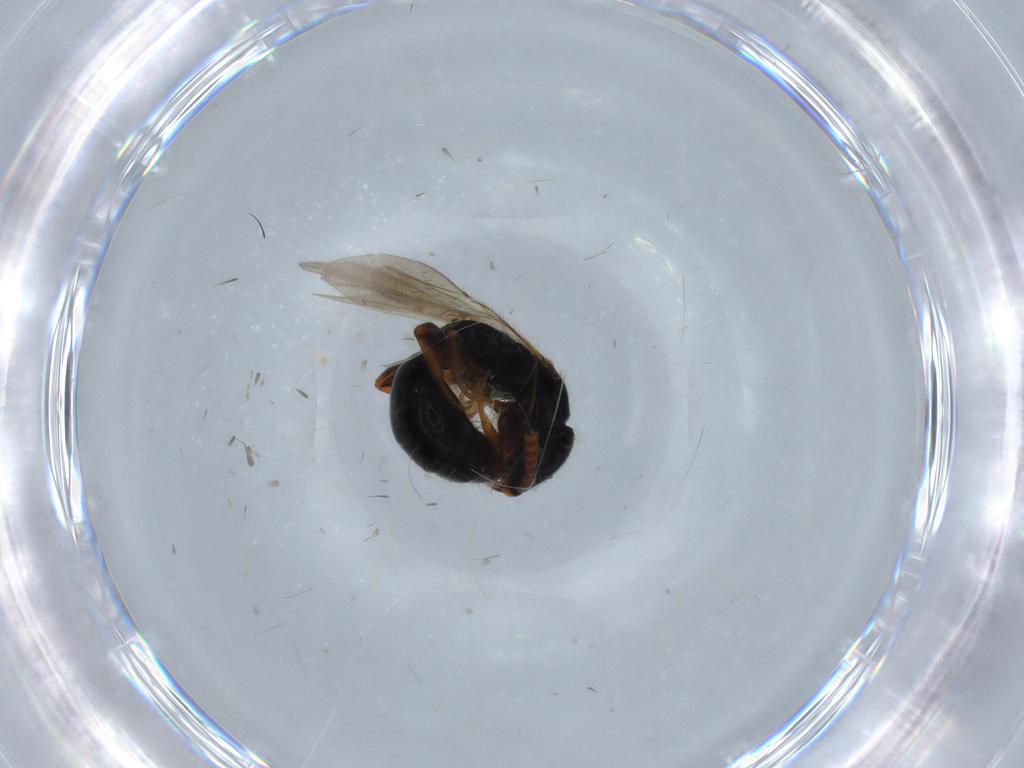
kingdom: Animalia
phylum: Arthropoda
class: Insecta
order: Hymenoptera
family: Bethylidae
